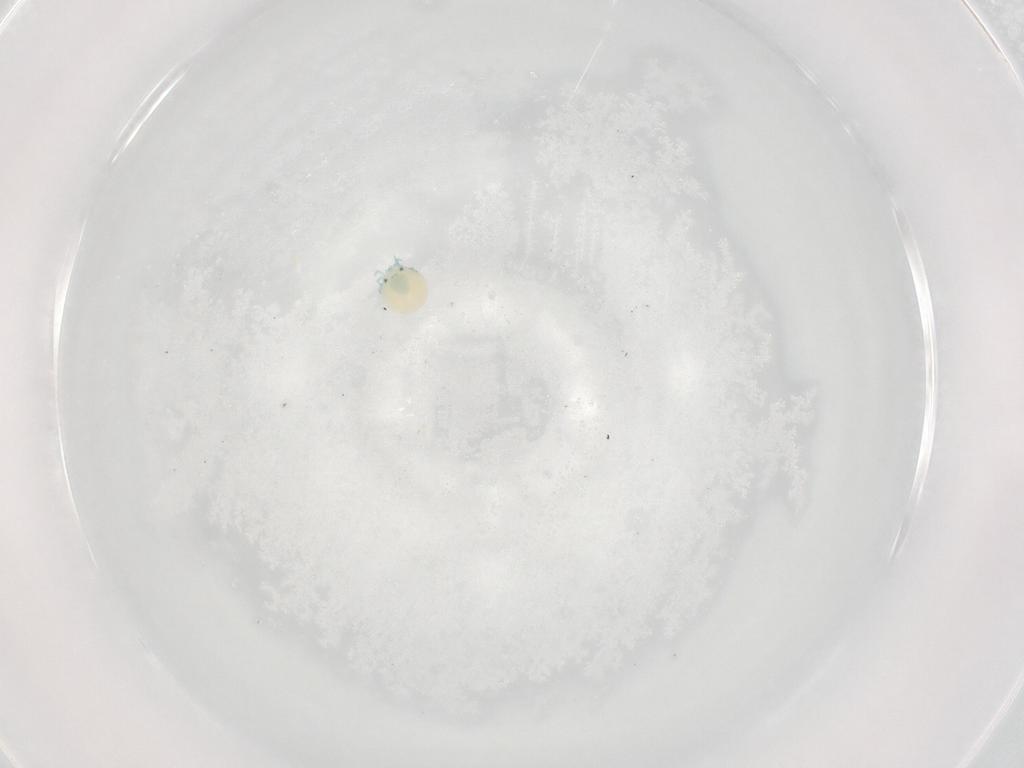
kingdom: Animalia
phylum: Arthropoda
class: Arachnida
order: Trombidiformes
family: Arrenuridae
